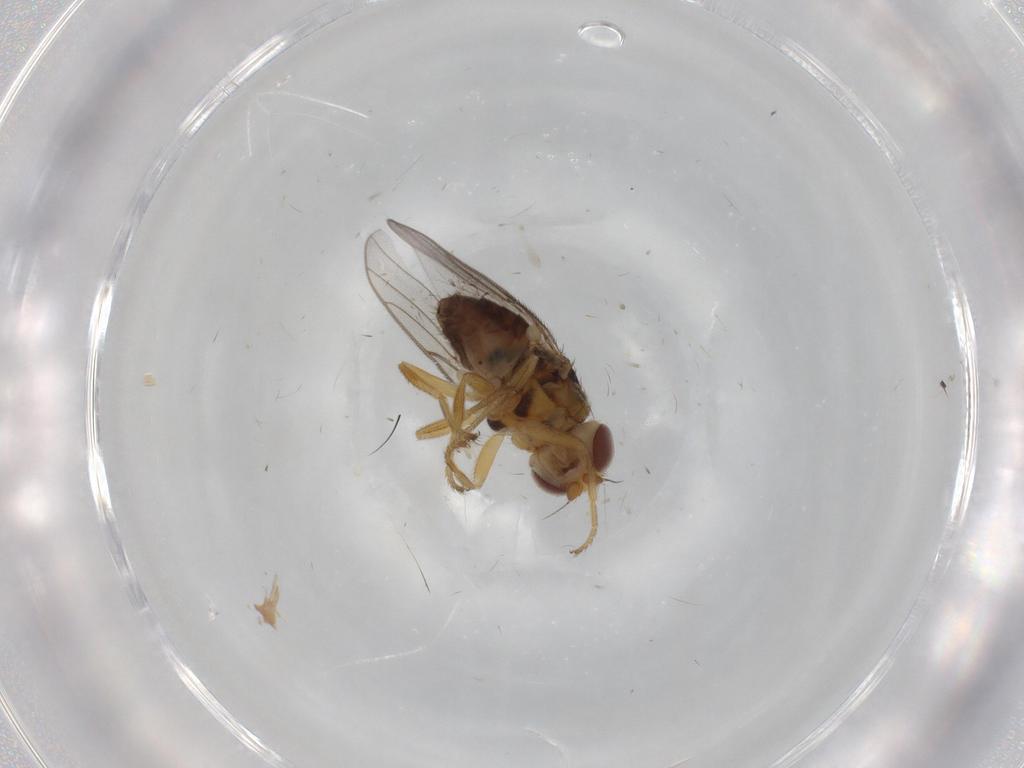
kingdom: Animalia
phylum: Arthropoda
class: Insecta
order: Diptera
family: Chloropidae
